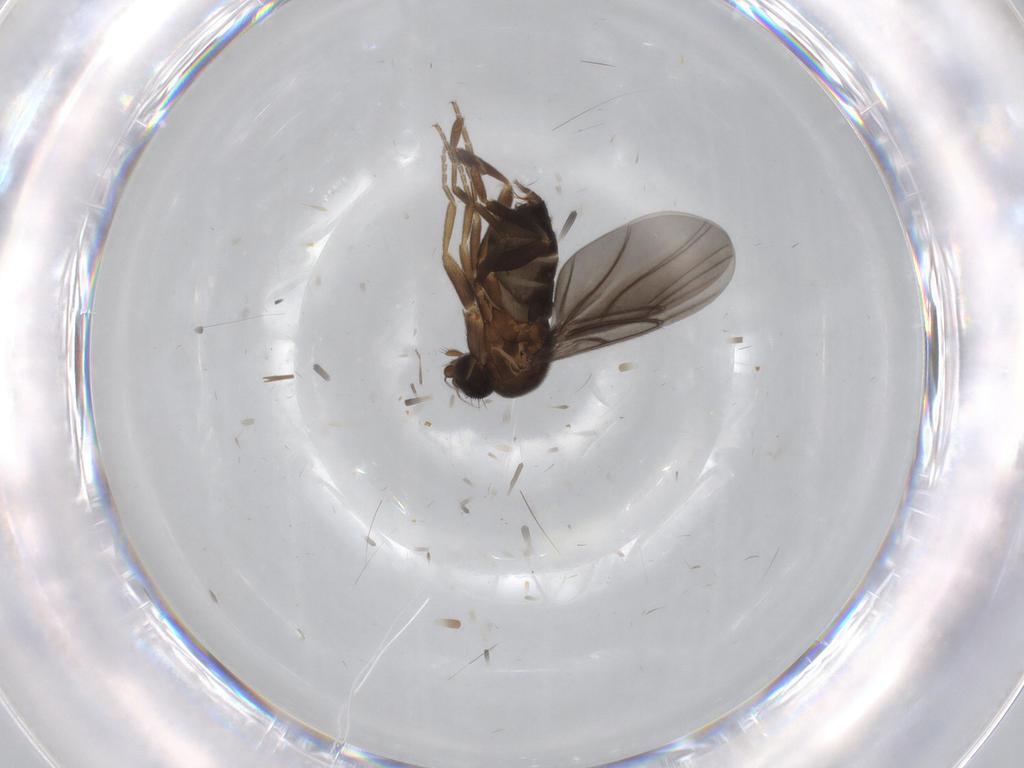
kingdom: Animalia
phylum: Arthropoda
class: Insecta
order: Diptera
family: Phoridae
